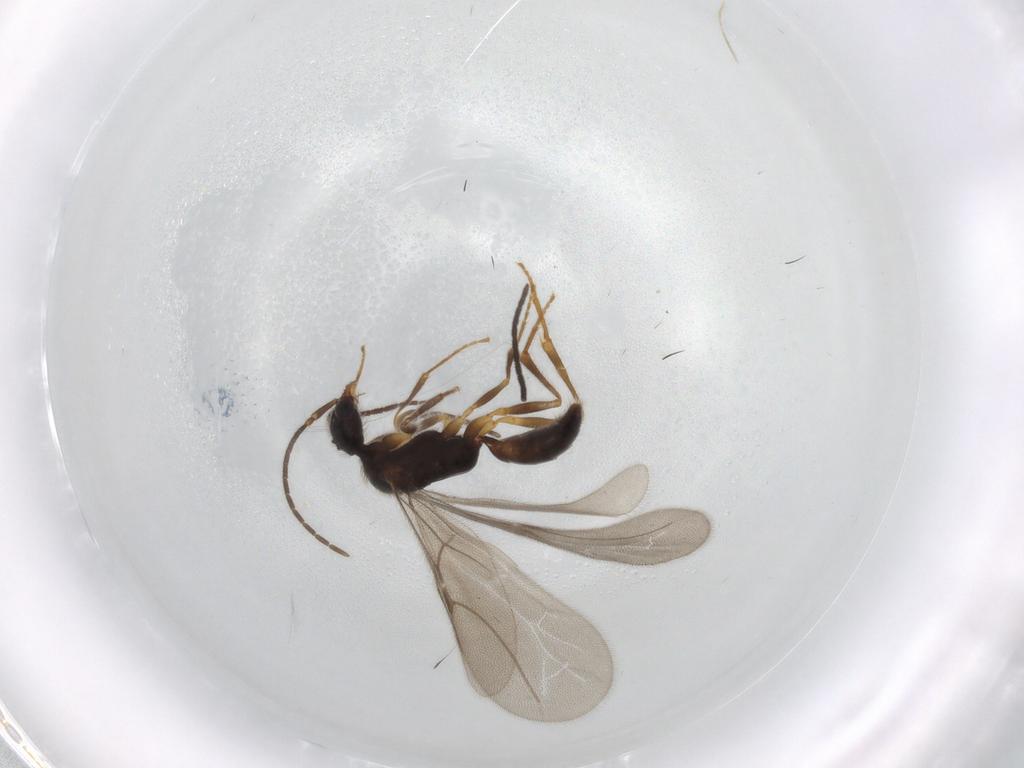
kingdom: Animalia
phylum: Arthropoda
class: Insecta
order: Hymenoptera
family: Bethylidae
